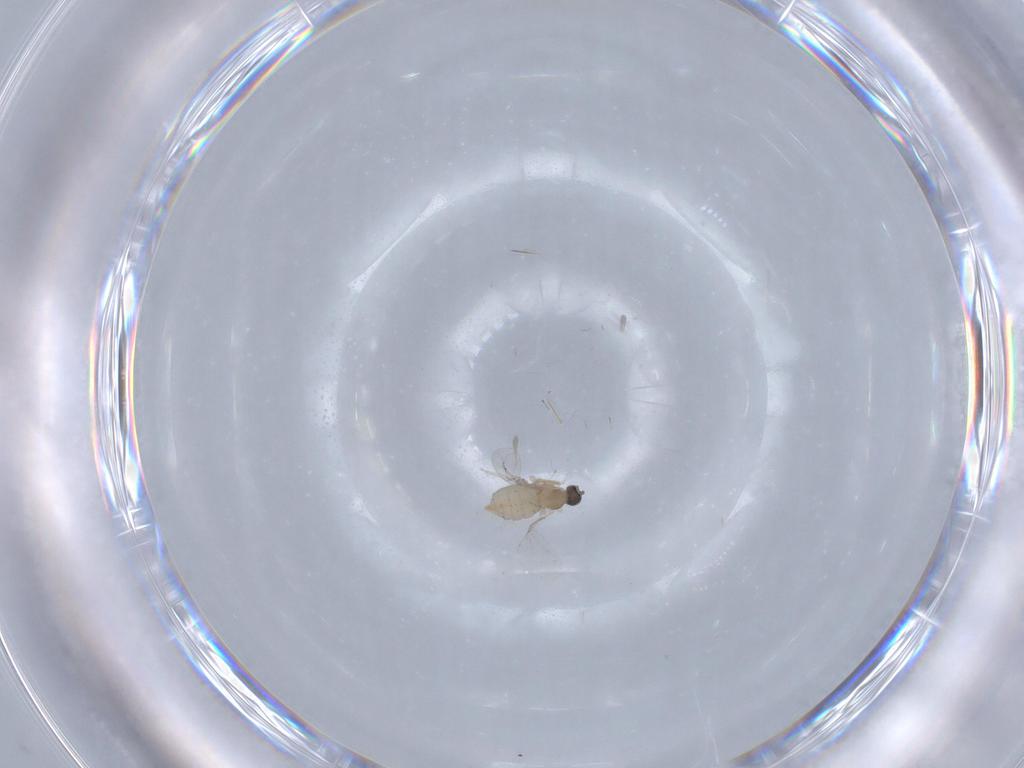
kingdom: Animalia
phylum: Arthropoda
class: Insecta
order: Diptera
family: Cecidomyiidae
